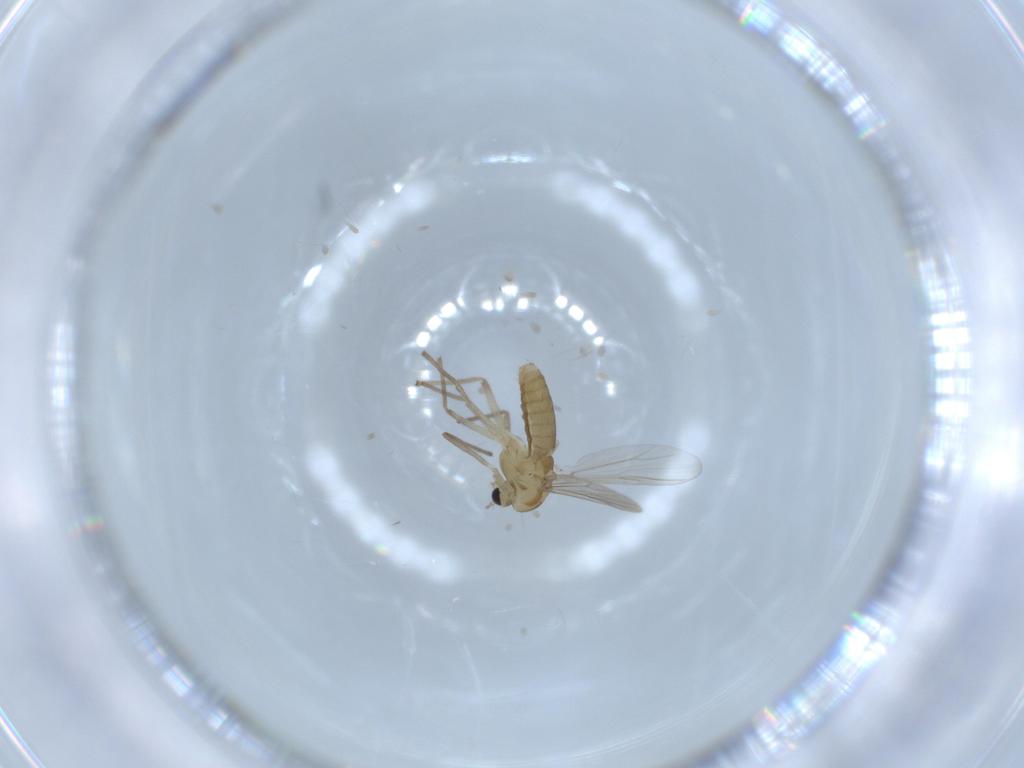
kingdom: Animalia
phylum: Arthropoda
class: Insecta
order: Diptera
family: Chironomidae
